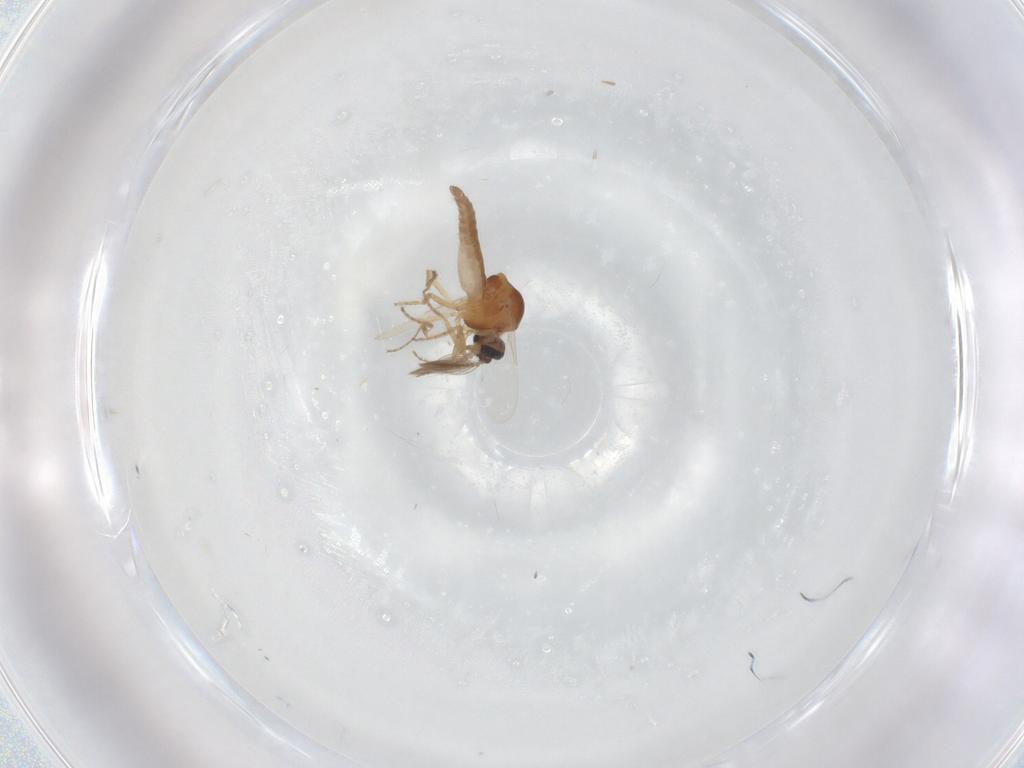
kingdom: Animalia
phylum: Arthropoda
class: Insecta
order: Diptera
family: Ceratopogonidae
